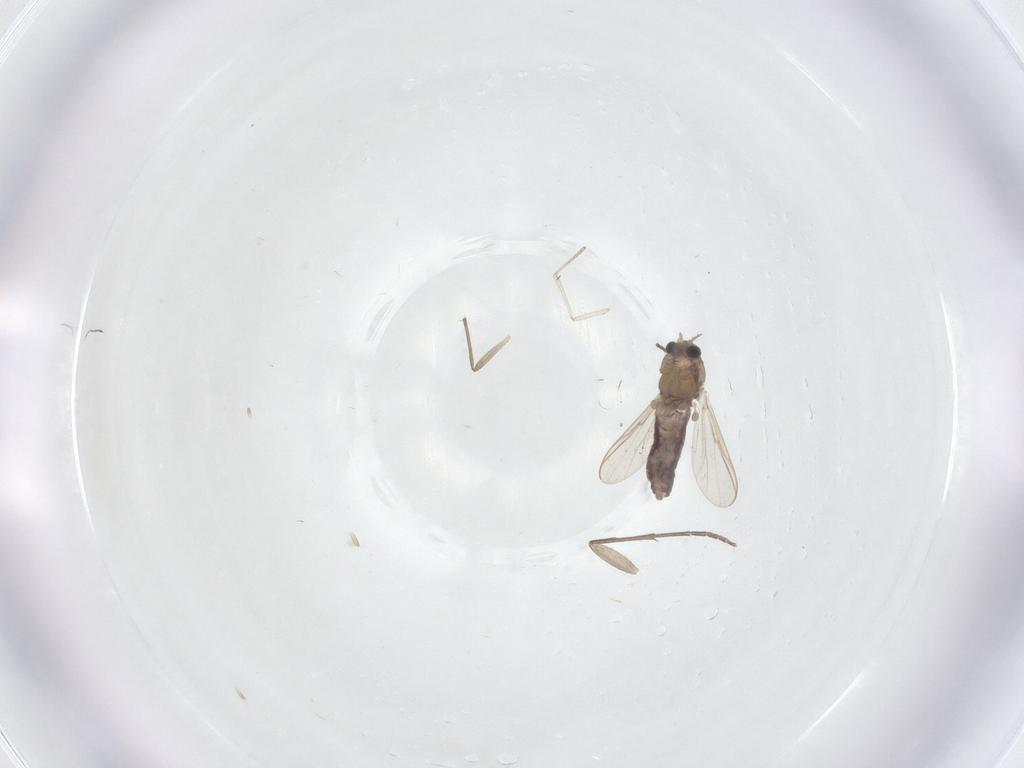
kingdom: Animalia
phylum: Arthropoda
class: Insecta
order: Diptera
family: Chironomidae
